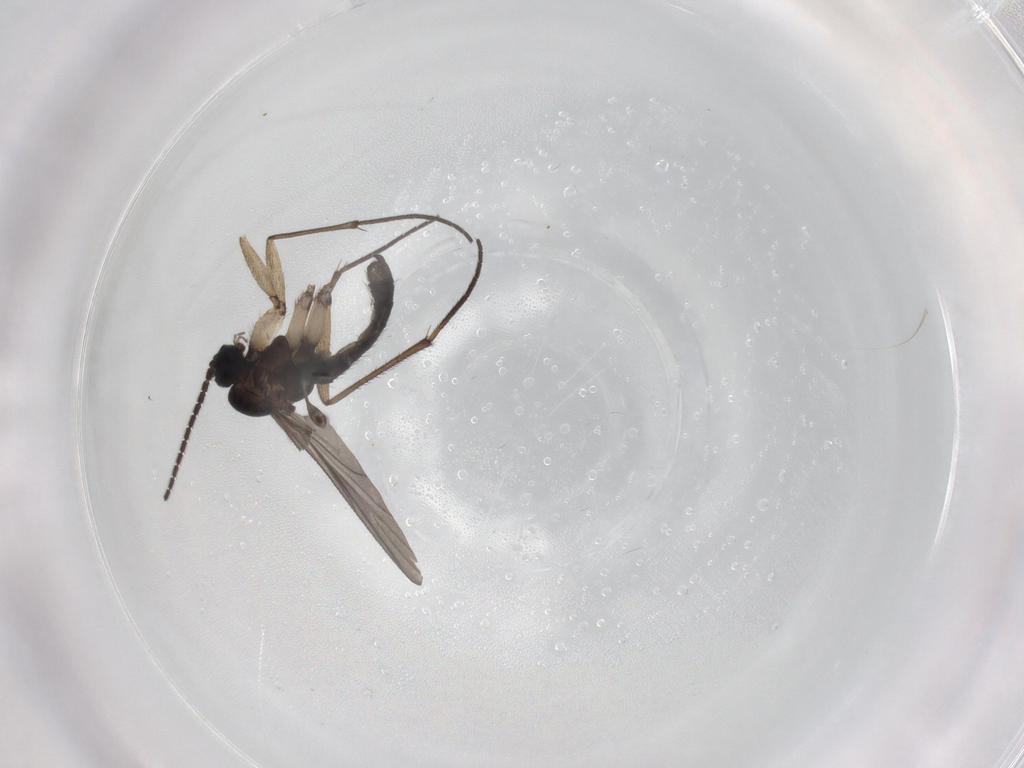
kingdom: Animalia
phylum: Arthropoda
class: Insecta
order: Diptera
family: Sciaridae
